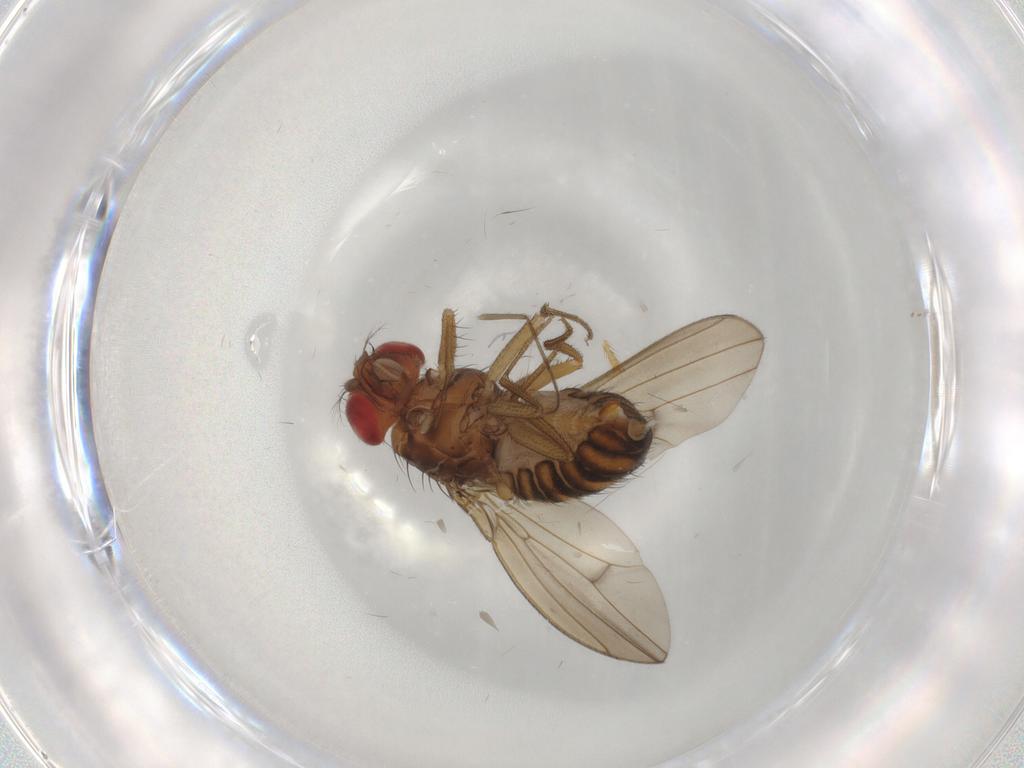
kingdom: Animalia
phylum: Arthropoda
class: Insecta
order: Diptera
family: Drosophilidae
